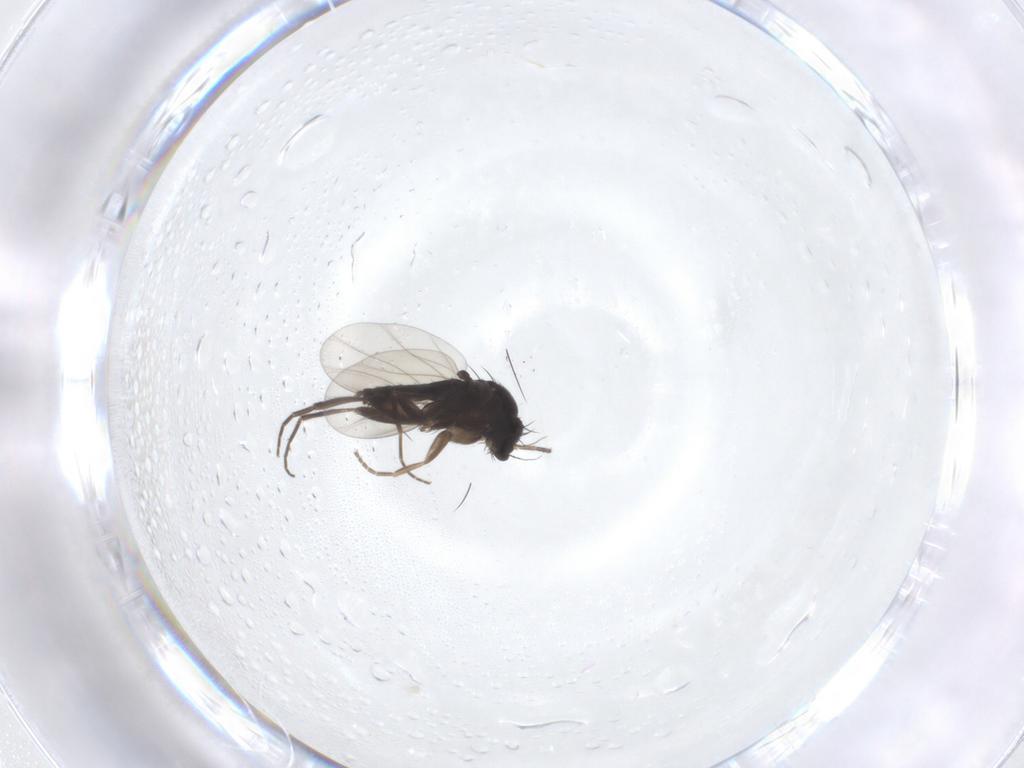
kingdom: Animalia
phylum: Arthropoda
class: Insecta
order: Diptera
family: Phoridae
